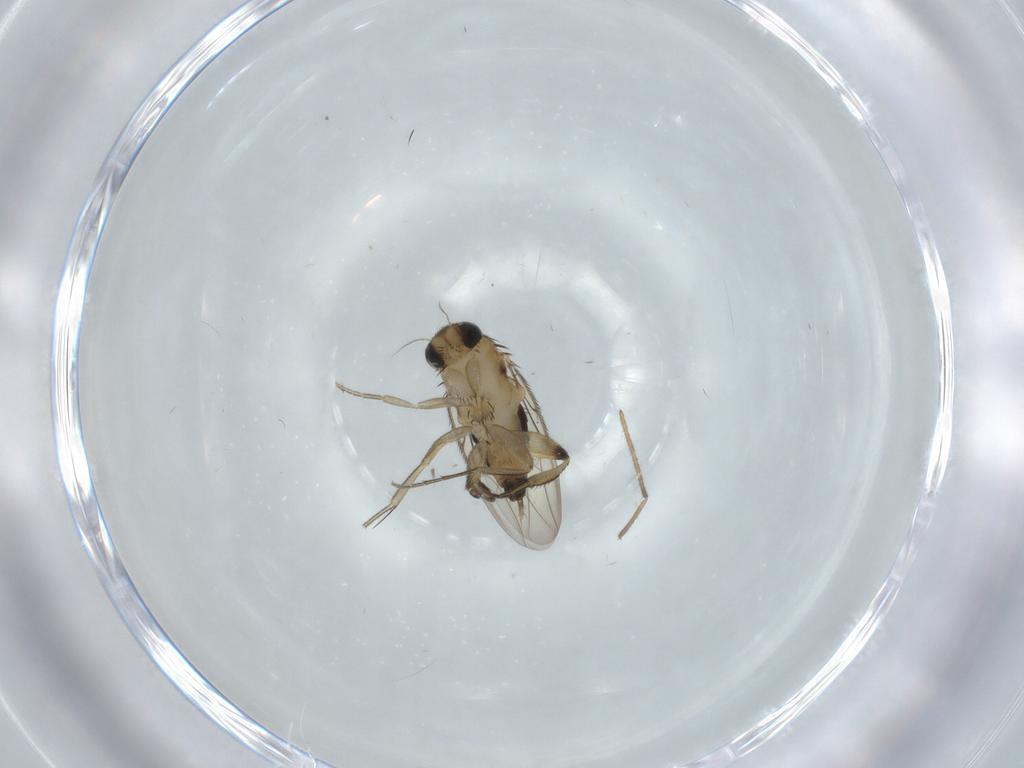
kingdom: Animalia
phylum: Arthropoda
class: Insecta
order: Diptera
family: Phoridae
